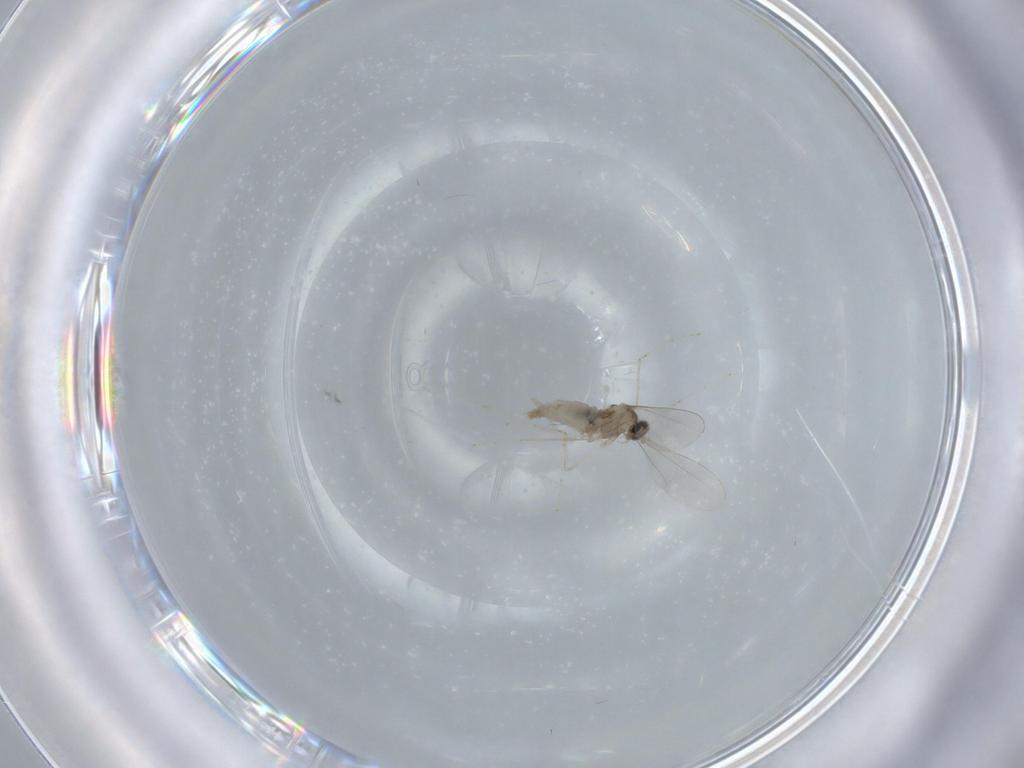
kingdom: Animalia
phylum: Arthropoda
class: Insecta
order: Diptera
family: Cecidomyiidae
